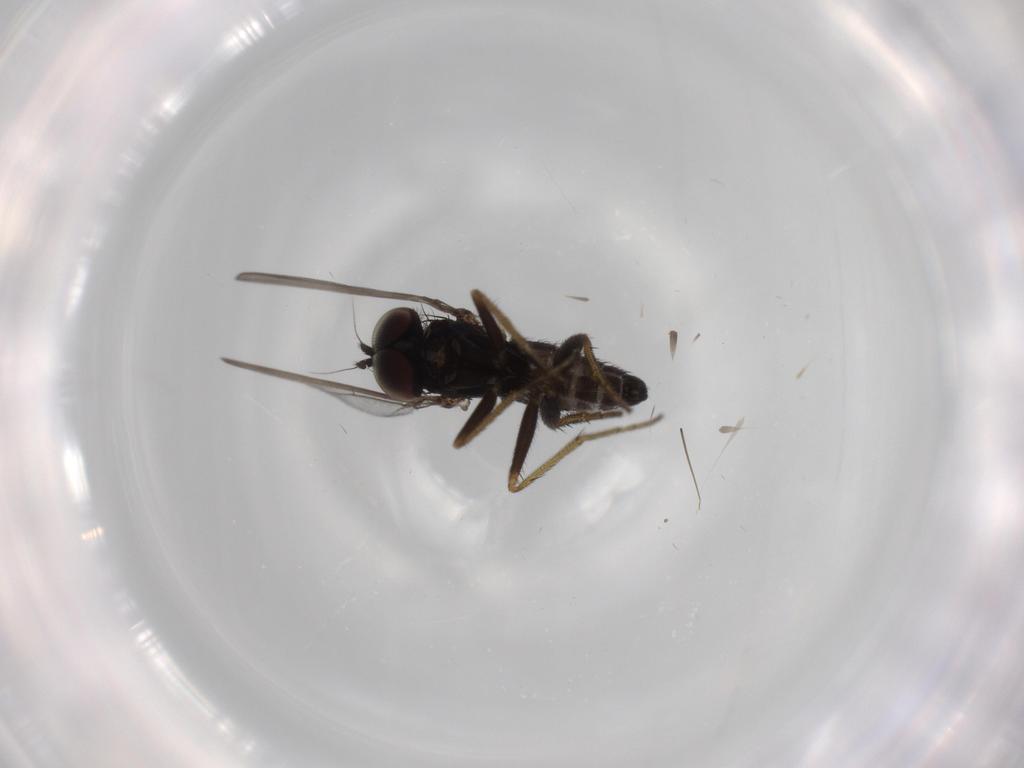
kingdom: Animalia
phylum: Arthropoda
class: Insecta
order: Diptera
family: Dolichopodidae
